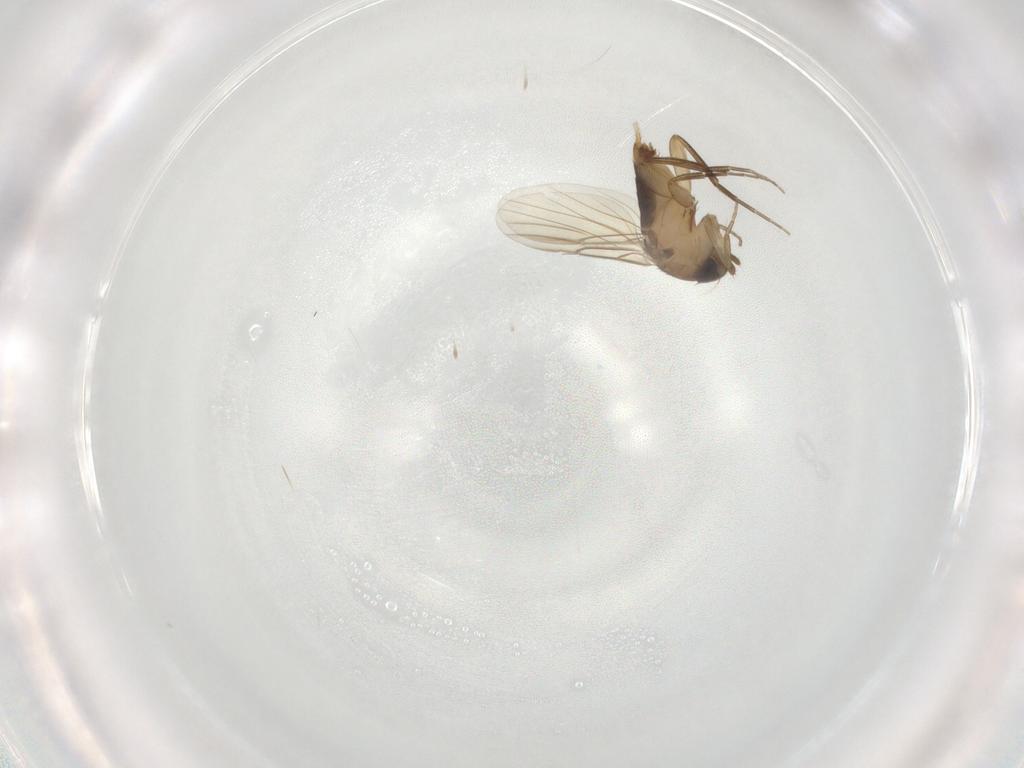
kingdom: Animalia
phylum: Arthropoda
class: Insecta
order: Diptera
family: Phoridae
